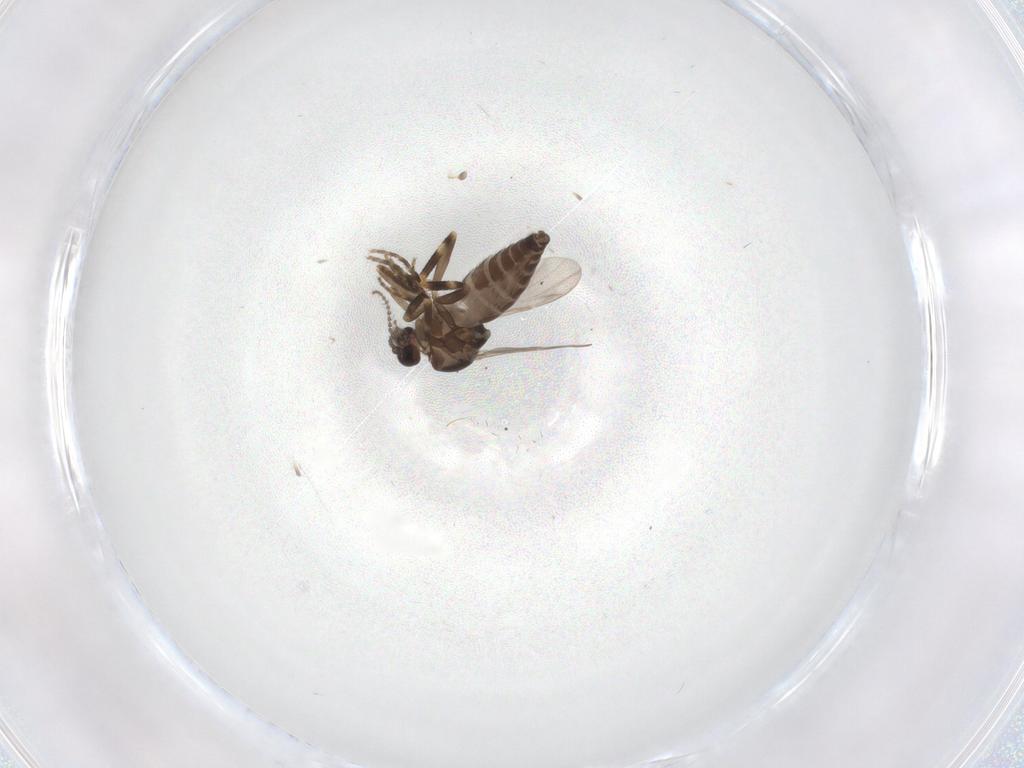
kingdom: Animalia
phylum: Arthropoda
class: Insecta
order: Diptera
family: Ceratopogonidae
